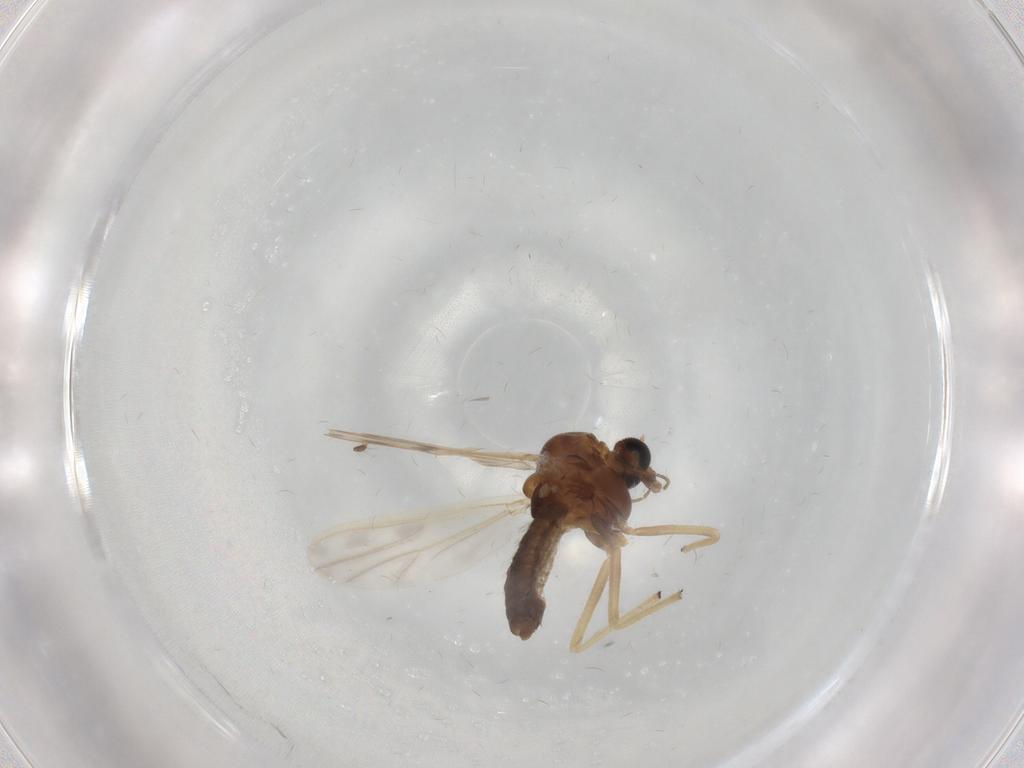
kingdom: Animalia
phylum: Arthropoda
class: Insecta
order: Diptera
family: Chironomidae
